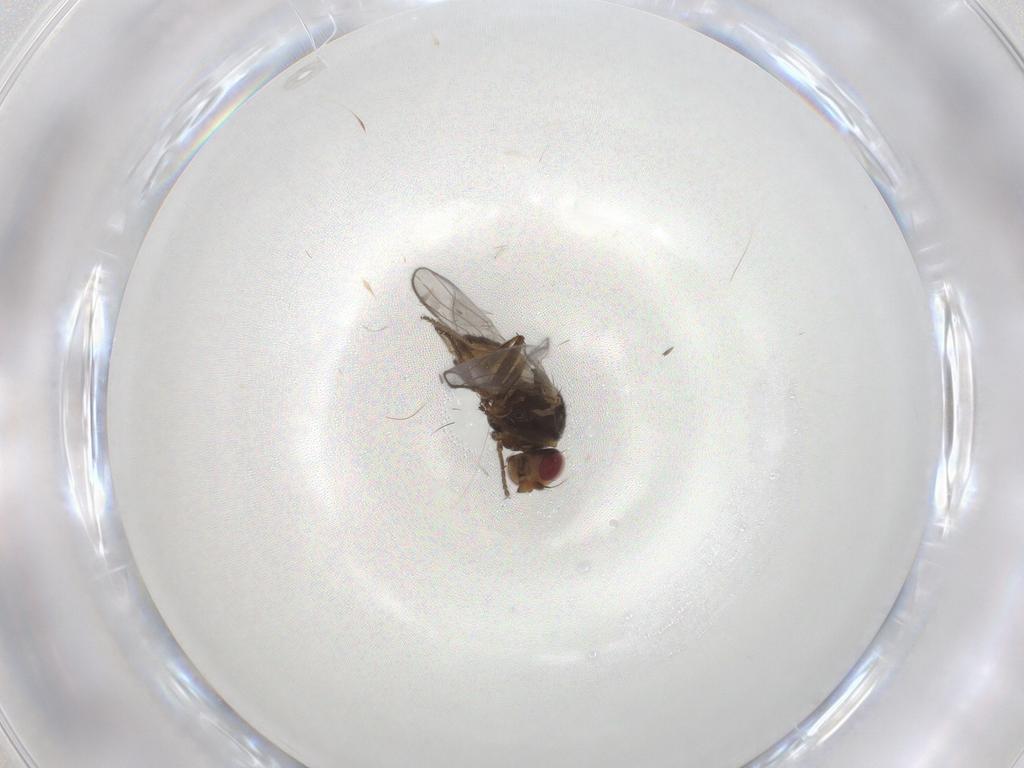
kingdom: Animalia
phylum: Arthropoda
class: Insecta
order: Diptera
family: Chloropidae
